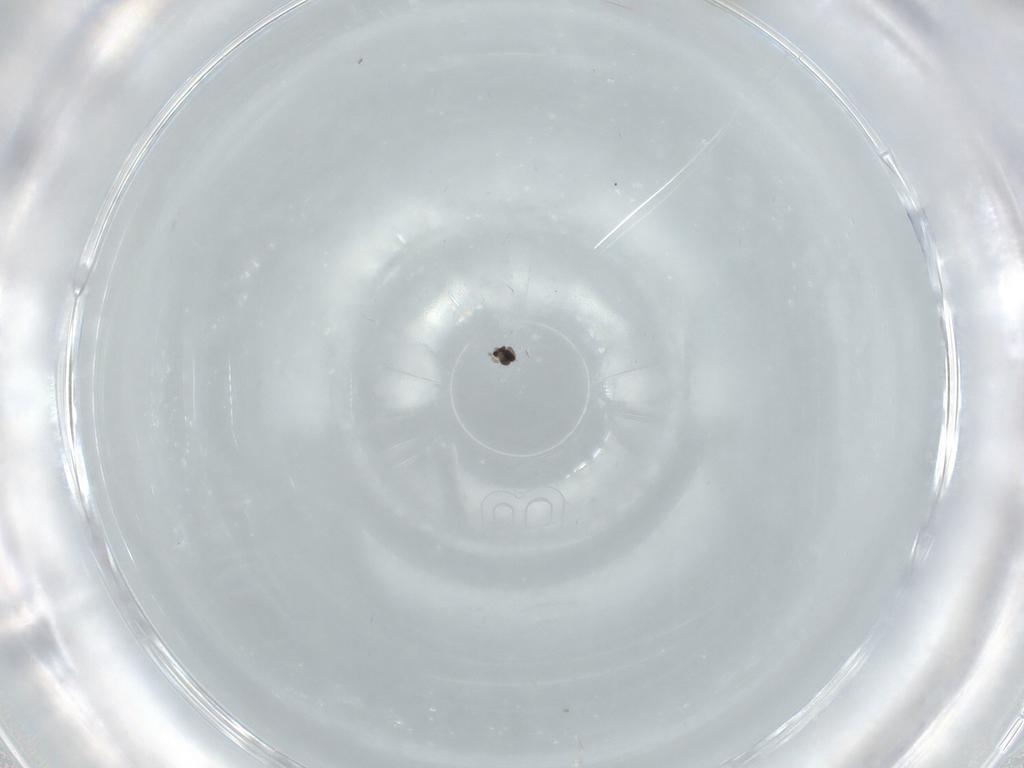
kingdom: Animalia
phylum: Arthropoda
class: Insecta
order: Diptera
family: Cecidomyiidae
